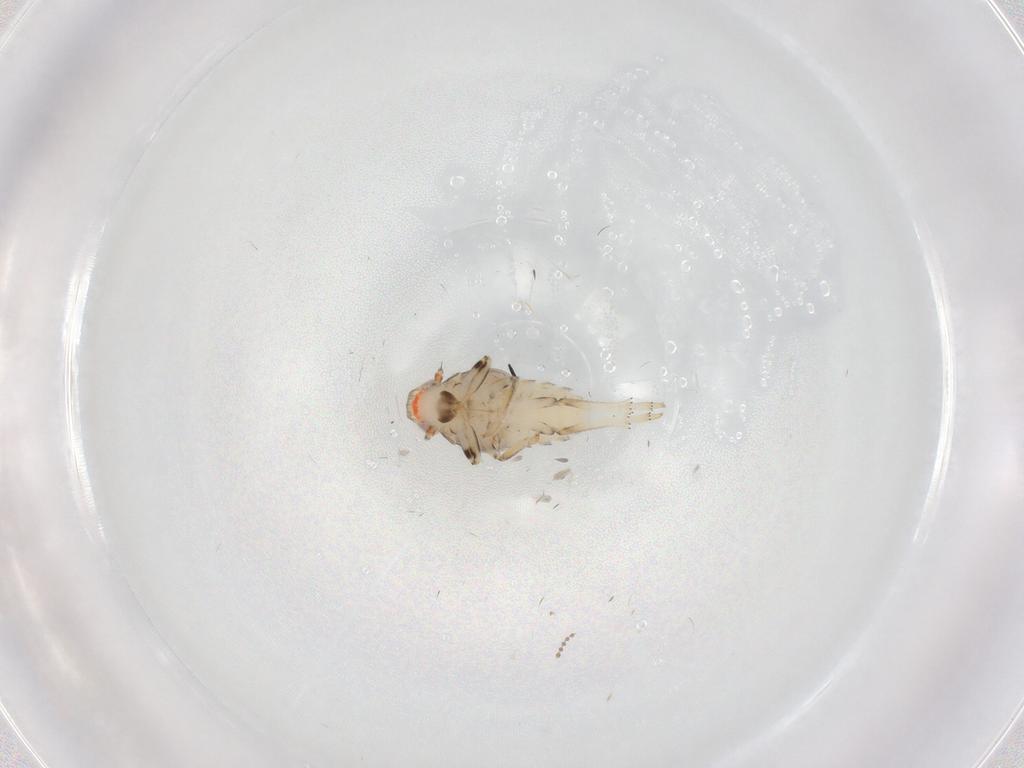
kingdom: Animalia
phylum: Arthropoda
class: Insecta
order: Hemiptera
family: Issidae
